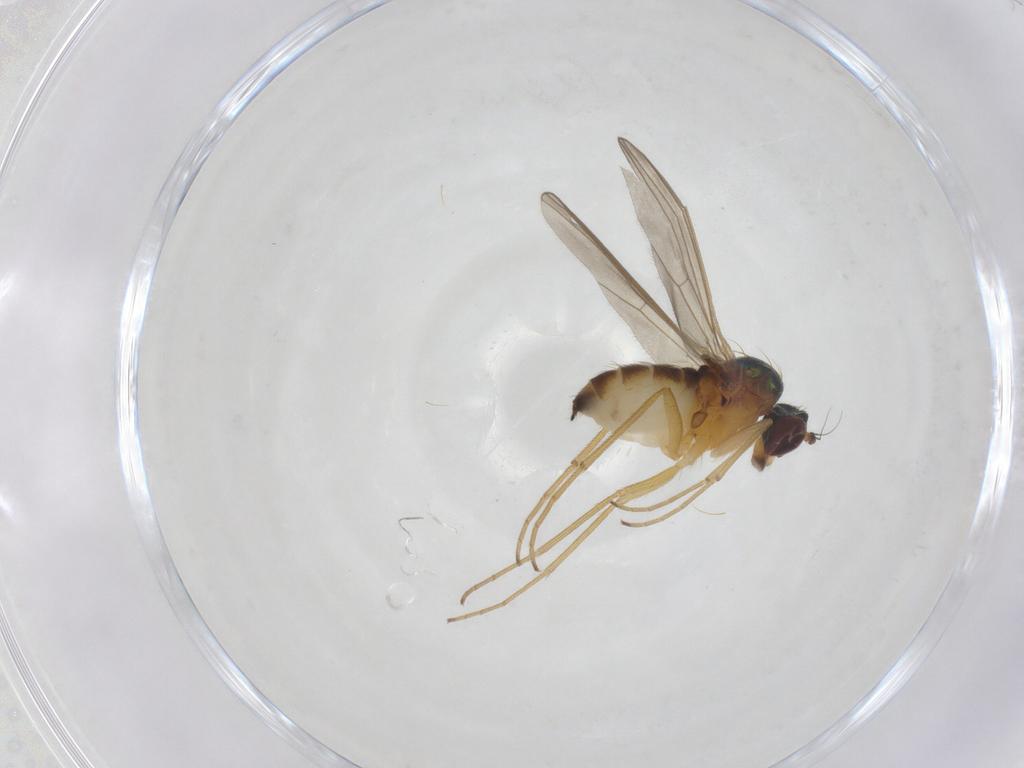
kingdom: Animalia
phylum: Arthropoda
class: Insecta
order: Diptera
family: Dolichopodidae
